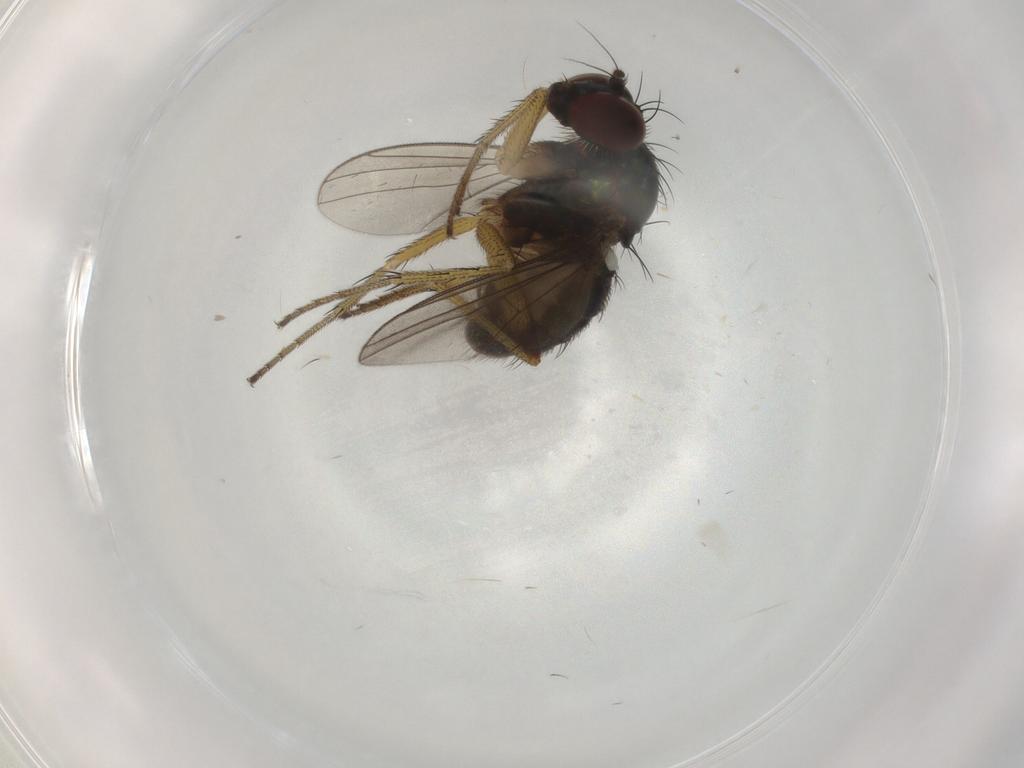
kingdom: Animalia
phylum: Arthropoda
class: Insecta
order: Diptera
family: Dolichopodidae
